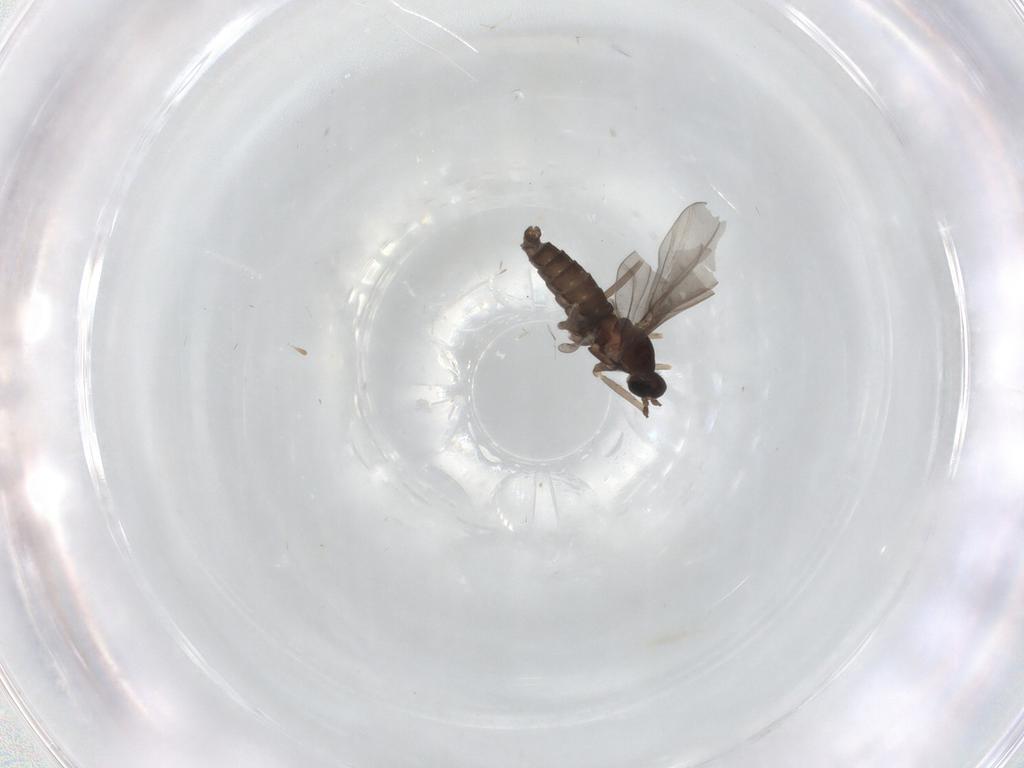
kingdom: Animalia
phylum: Arthropoda
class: Insecta
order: Diptera
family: Cecidomyiidae
